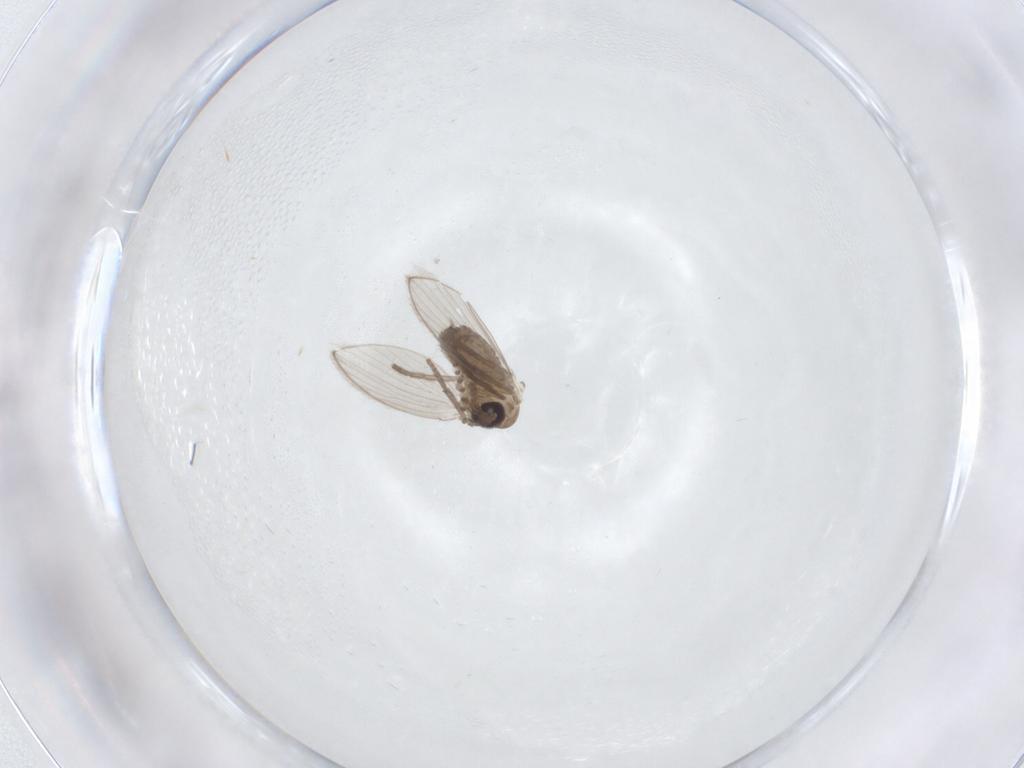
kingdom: Animalia
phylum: Arthropoda
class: Insecta
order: Diptera
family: Psychodidae
